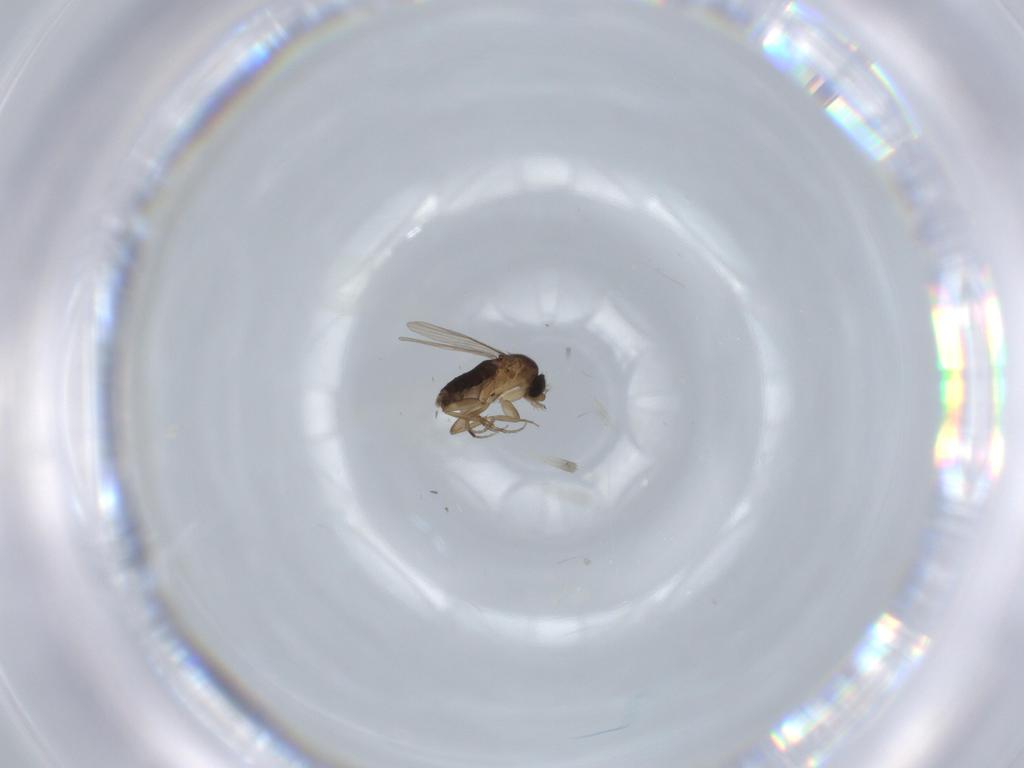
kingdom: Animalia
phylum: Arthropoda
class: Insecta
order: Diptera
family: Phoridae
